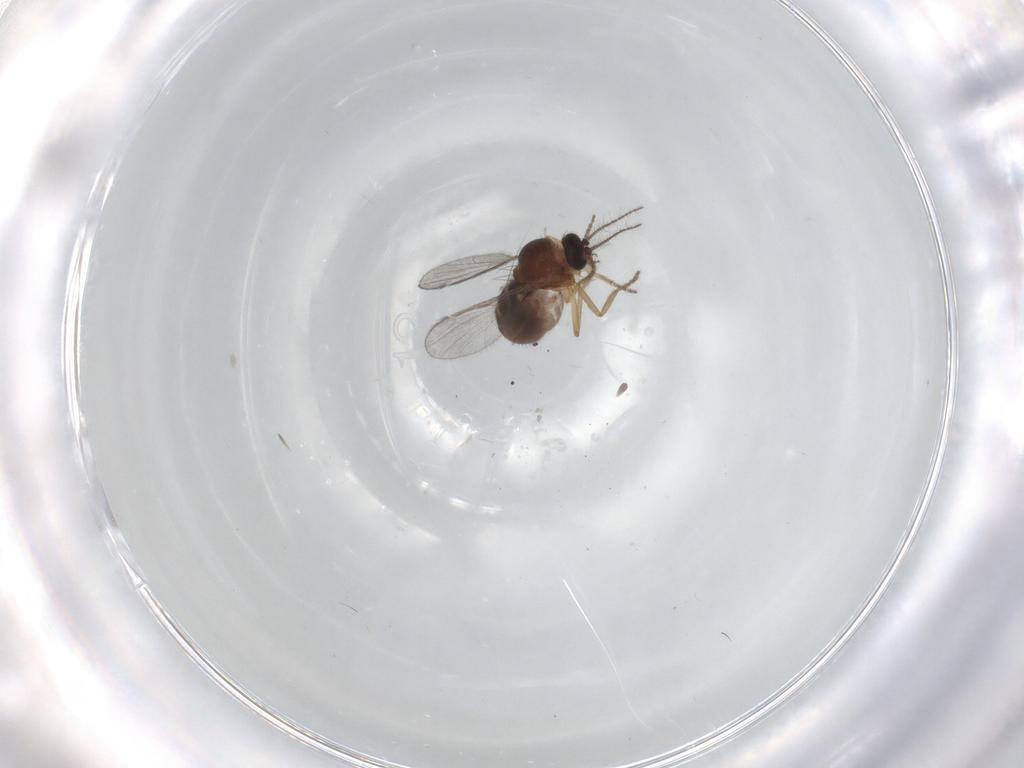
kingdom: Animalia
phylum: Arthropoda
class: Insecta
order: Diptera
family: Ceratopogonidae
